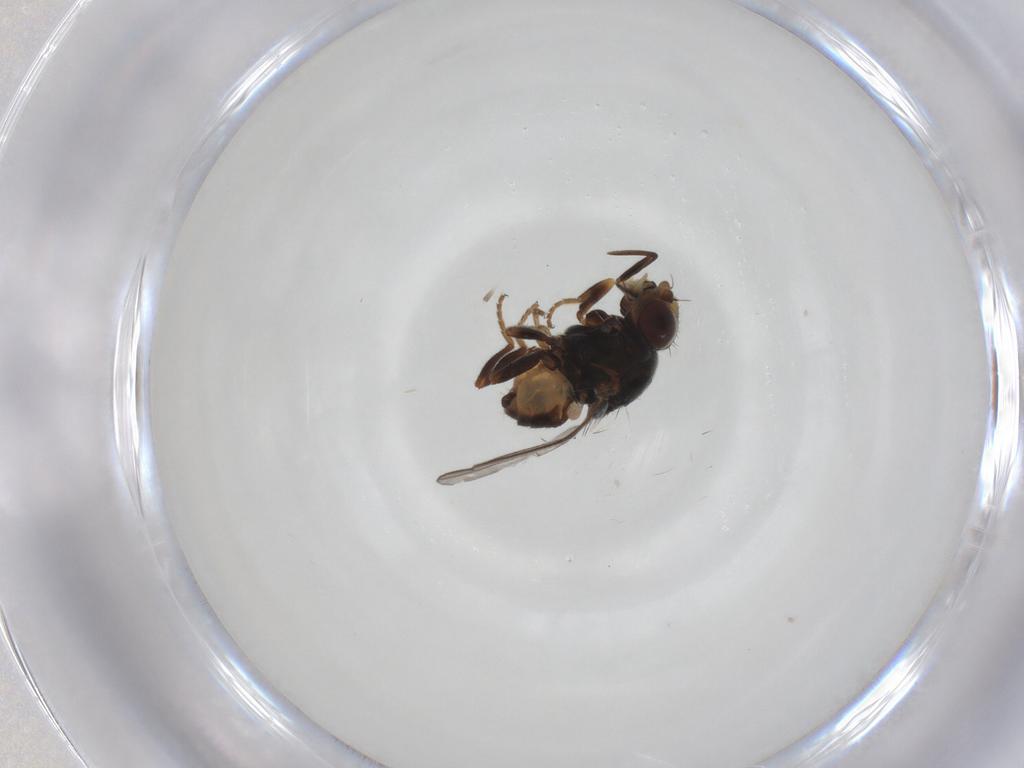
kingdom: Animalia
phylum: Arthropoda
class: Insecta
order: Diptera
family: Chloropidae
